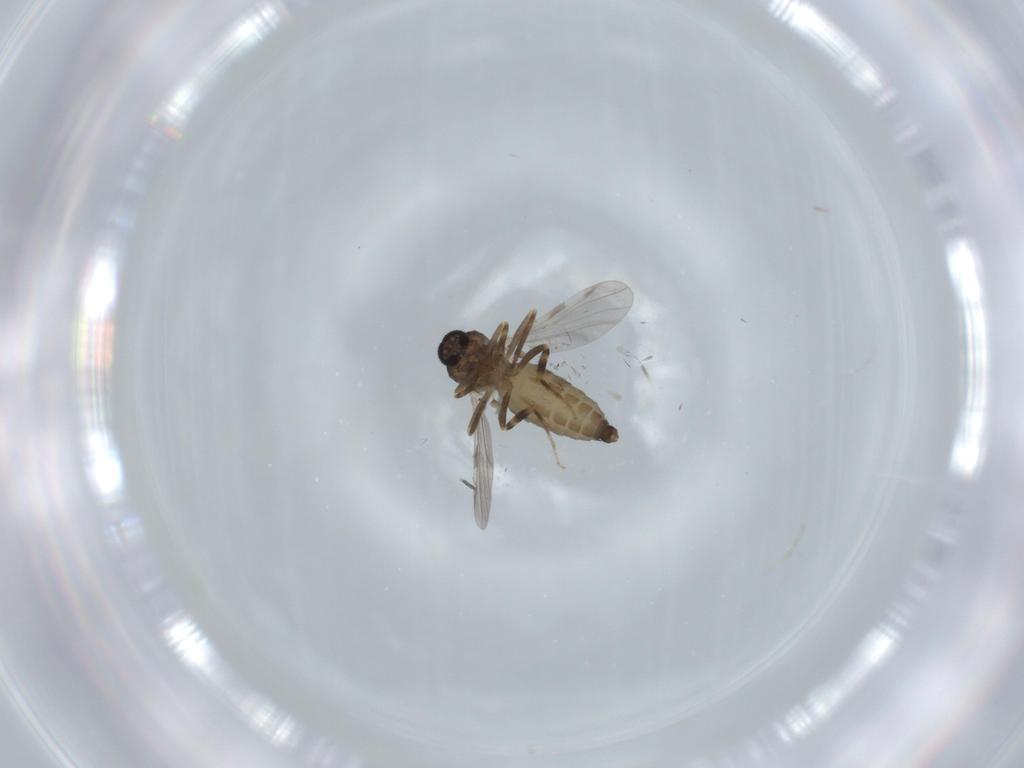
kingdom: Animalia
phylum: Arthropoda
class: Insecta
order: Diptera
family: Ceratopogonidae
